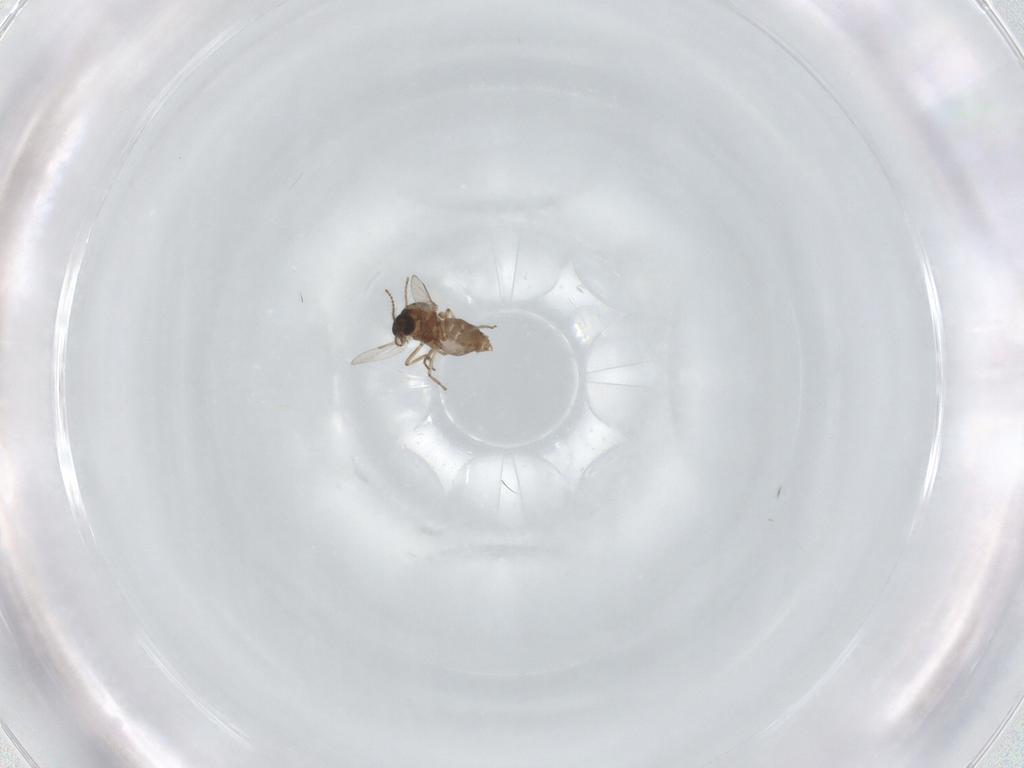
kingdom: Animalia
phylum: Arthropoda
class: Insecta
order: Diptera
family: Ceratopogonidae
